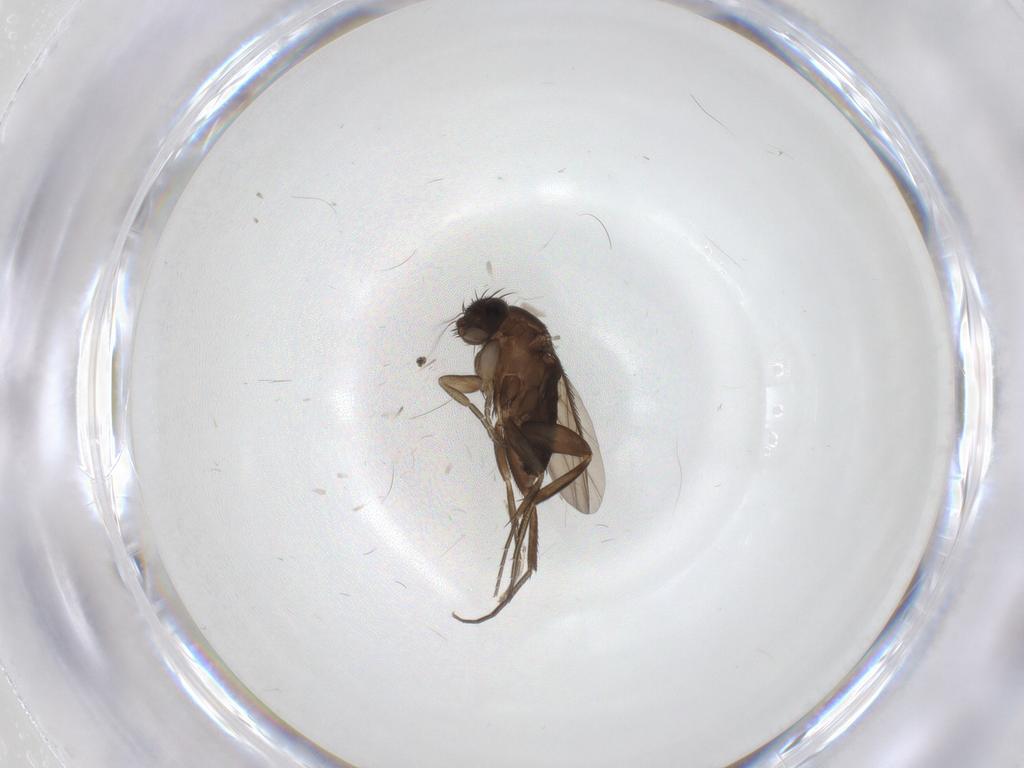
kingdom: Animalia
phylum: Arthropoda
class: Insecta
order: Diptera
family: Phoridae
